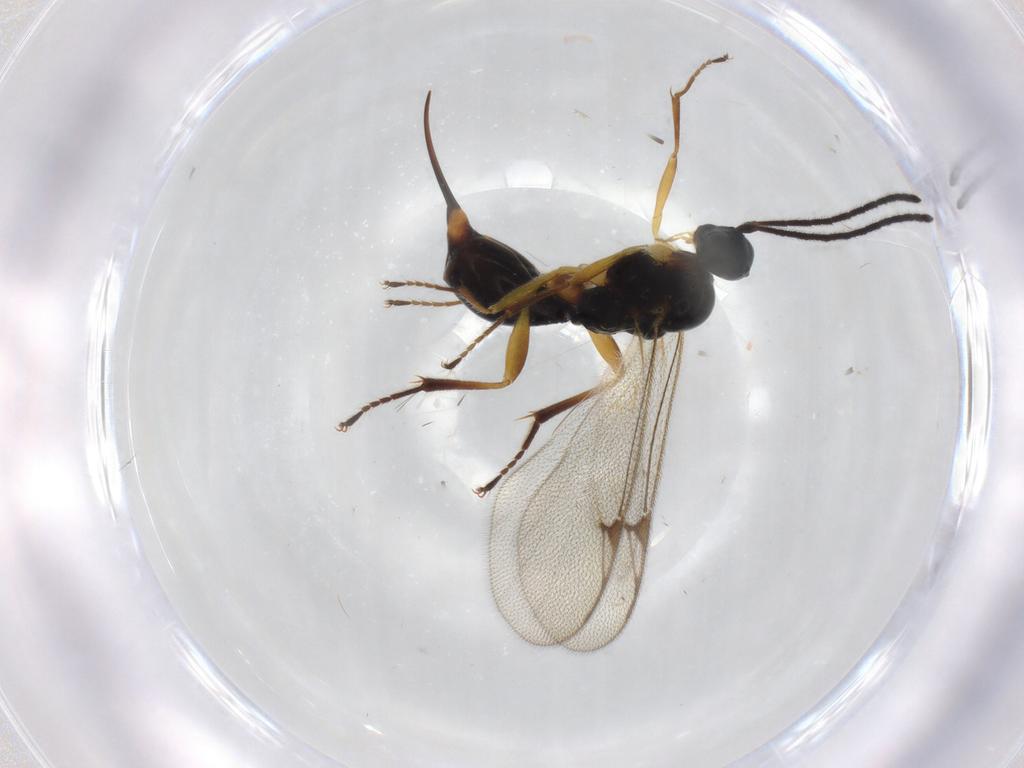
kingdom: Animalia
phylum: Arthropoda
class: Insecta
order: Hymenoptera
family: Proctotrupidae
